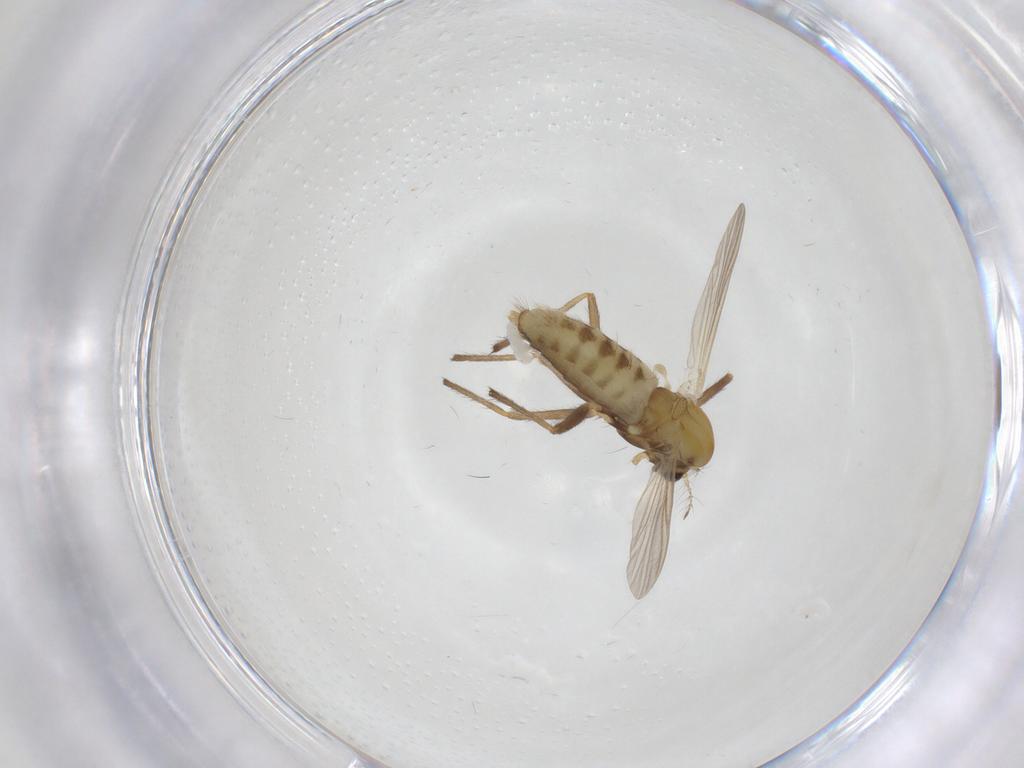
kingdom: Animalia
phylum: Arthropoda
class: Insecta
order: Diptera
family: Chironomidae
